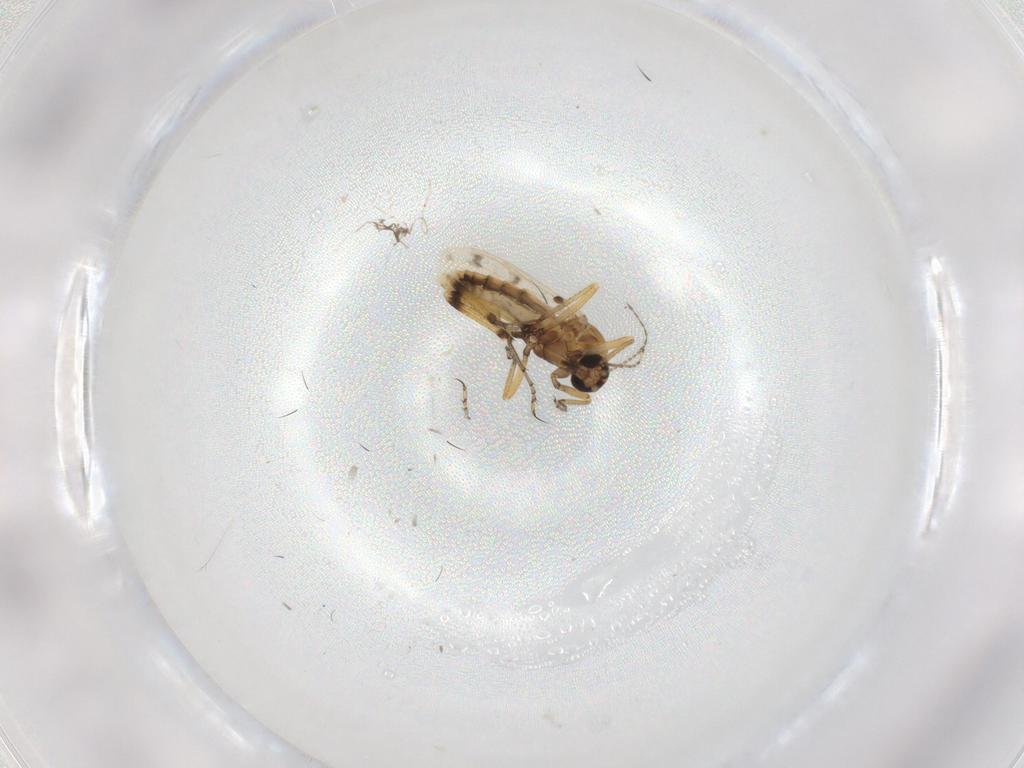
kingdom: Animalia
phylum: Arthropoda
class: Insecta
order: Diptera
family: Ceratopogonidae
